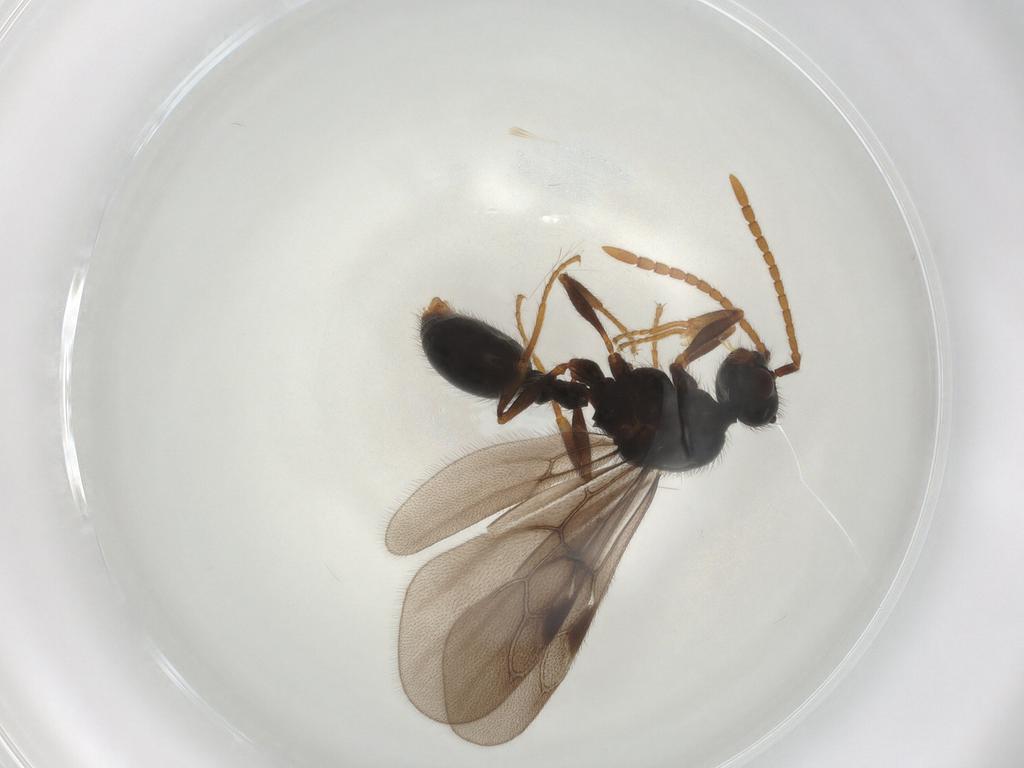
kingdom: Animalia
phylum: Arthropoda
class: Insecta
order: Hymenoptera
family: Formicidae
